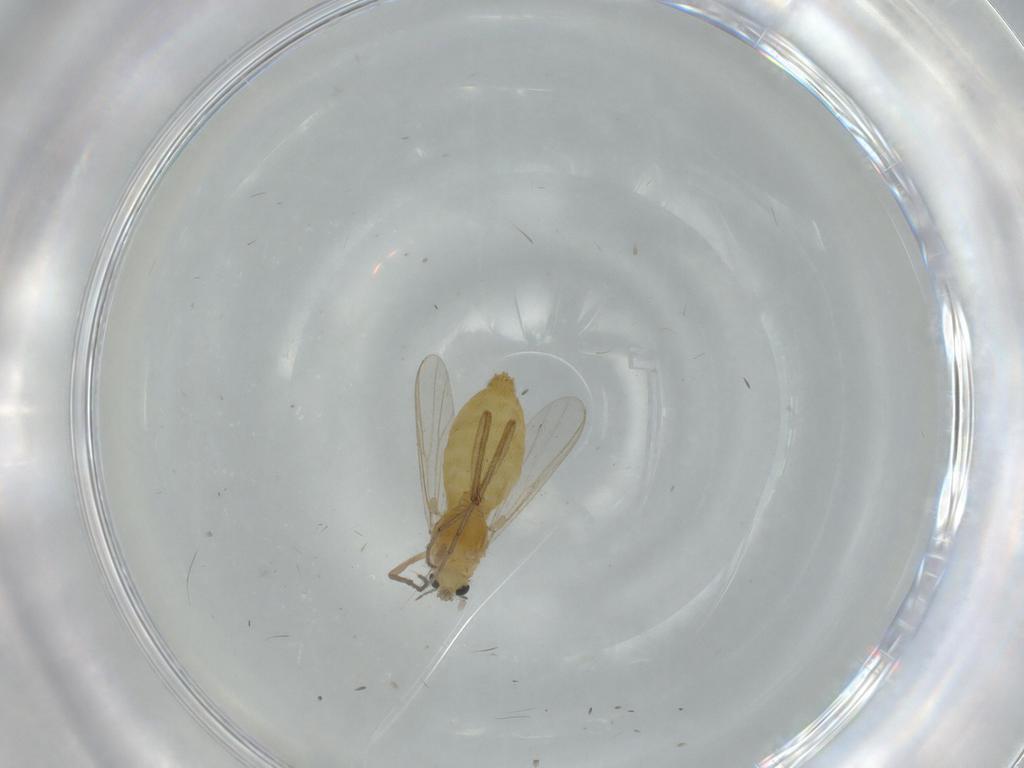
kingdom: Animalia
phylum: Arthropoda
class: Insecta
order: Diptera
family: Chironomidae
